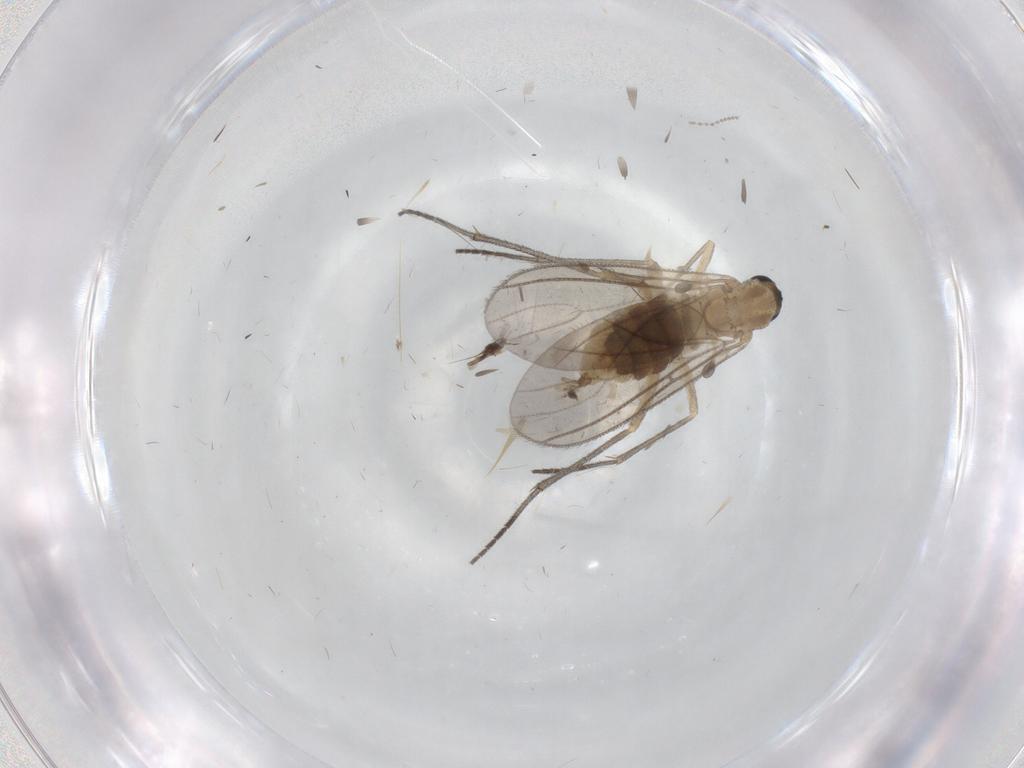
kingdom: Animalia
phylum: Arthropoda
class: Insecta
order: Diptera
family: Sciaridae
